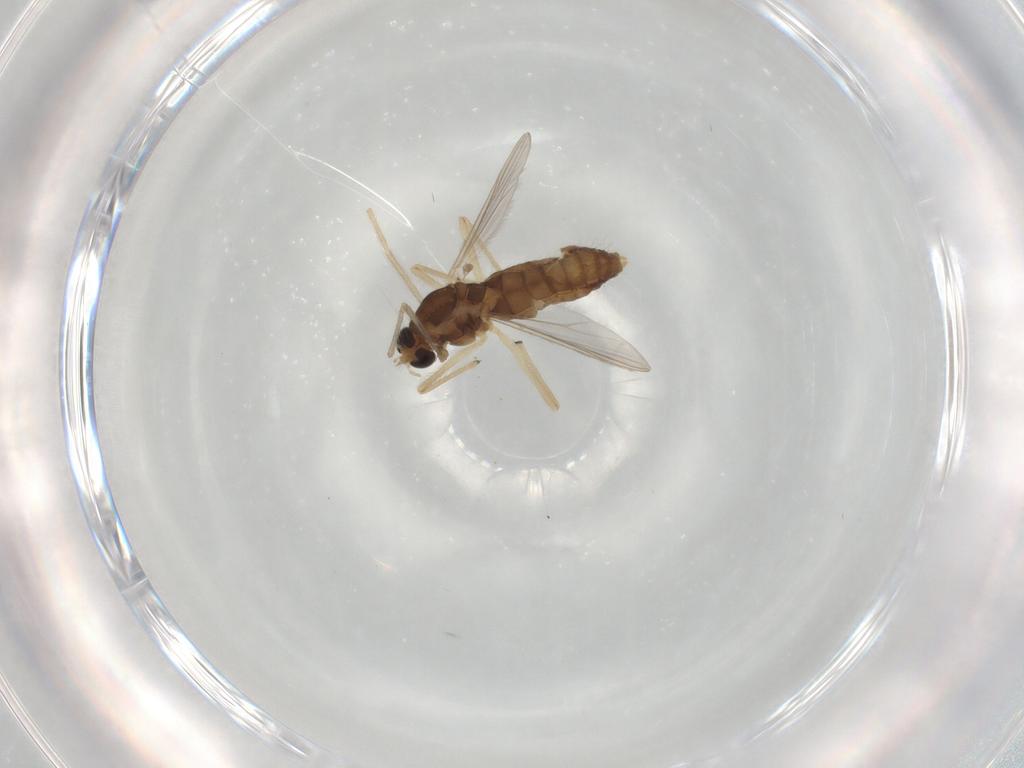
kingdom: Animalia
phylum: Arthropoda
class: Insecta
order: Diptera
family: Chironomidae
